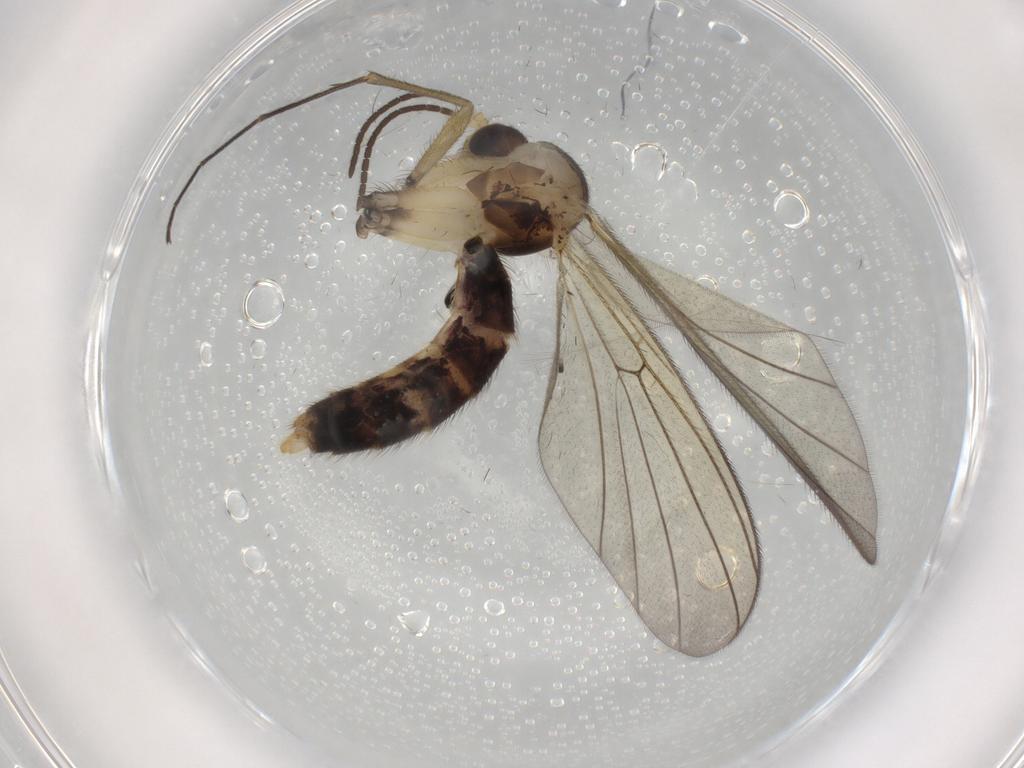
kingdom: Animalia
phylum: Arthropoda
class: Insecta
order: Diptera
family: Sciaridae
